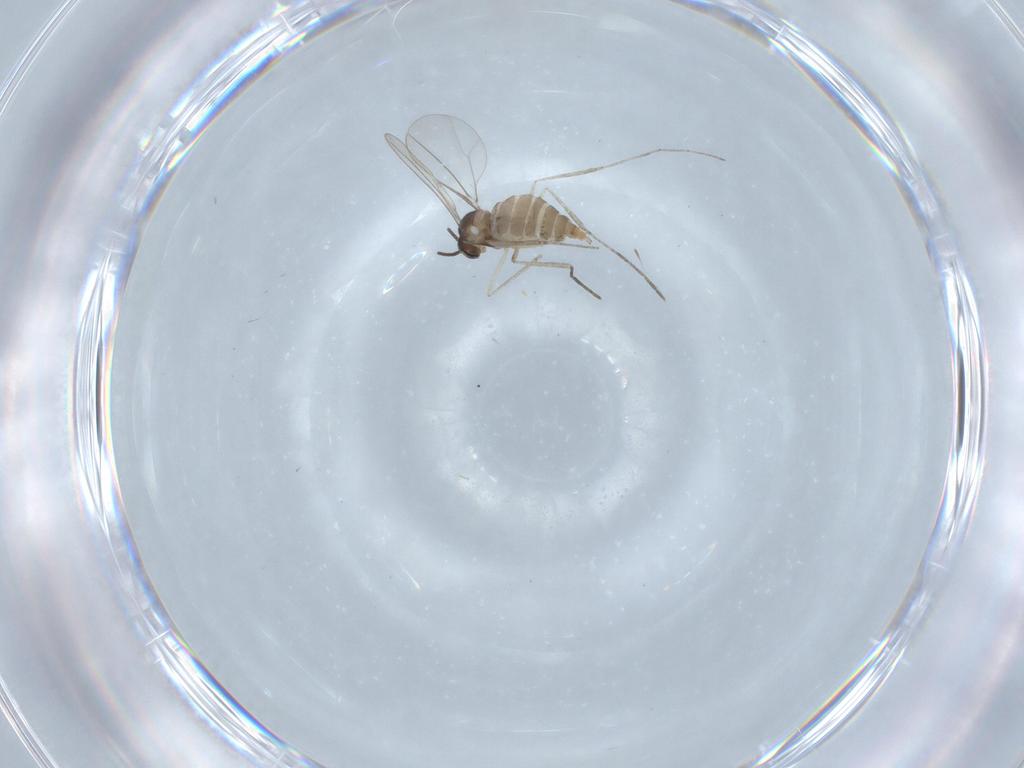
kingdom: Animalia
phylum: Arthropoda
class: Insecta
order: Diptera
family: Cecidomyiidae
